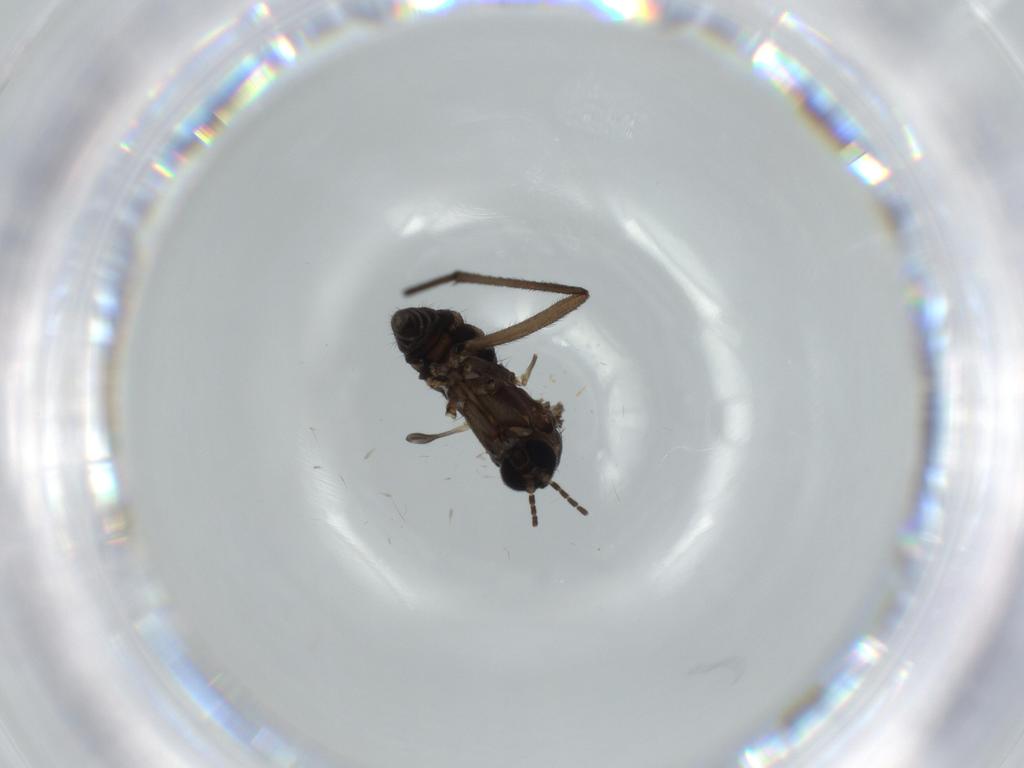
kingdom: Animalia
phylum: Arthropoda
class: Insecta
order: Diptera
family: Sciaridae
